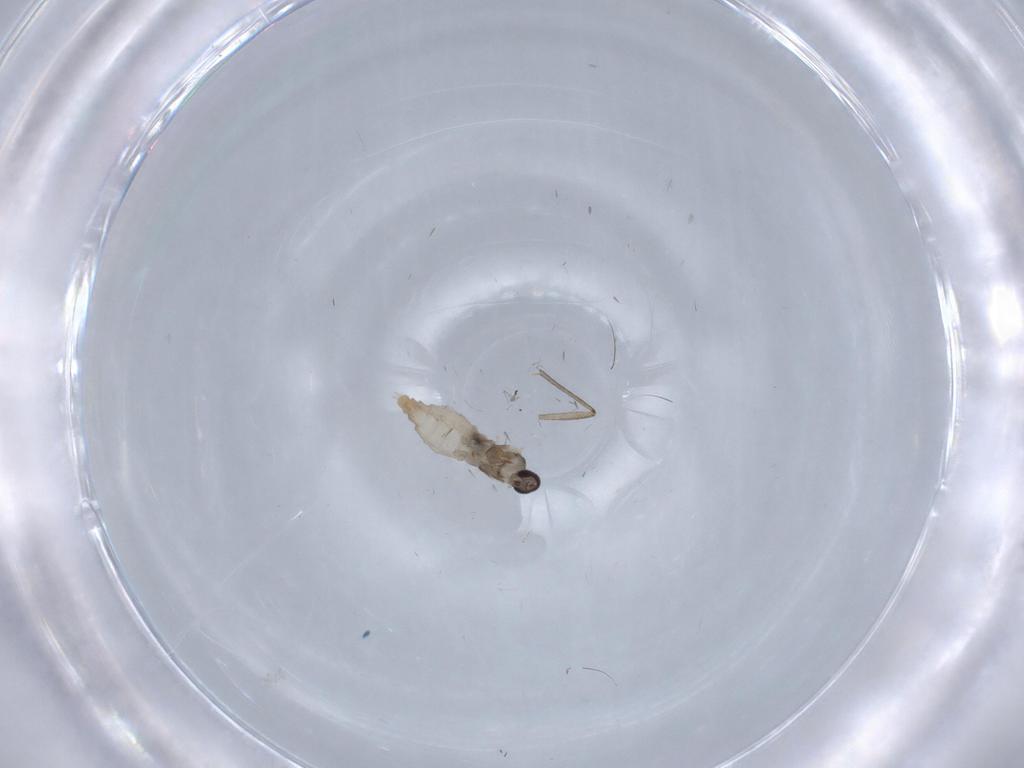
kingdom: Animalia
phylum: Arthropoda
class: Insecta
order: Diptera
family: Cecidomyiidae
